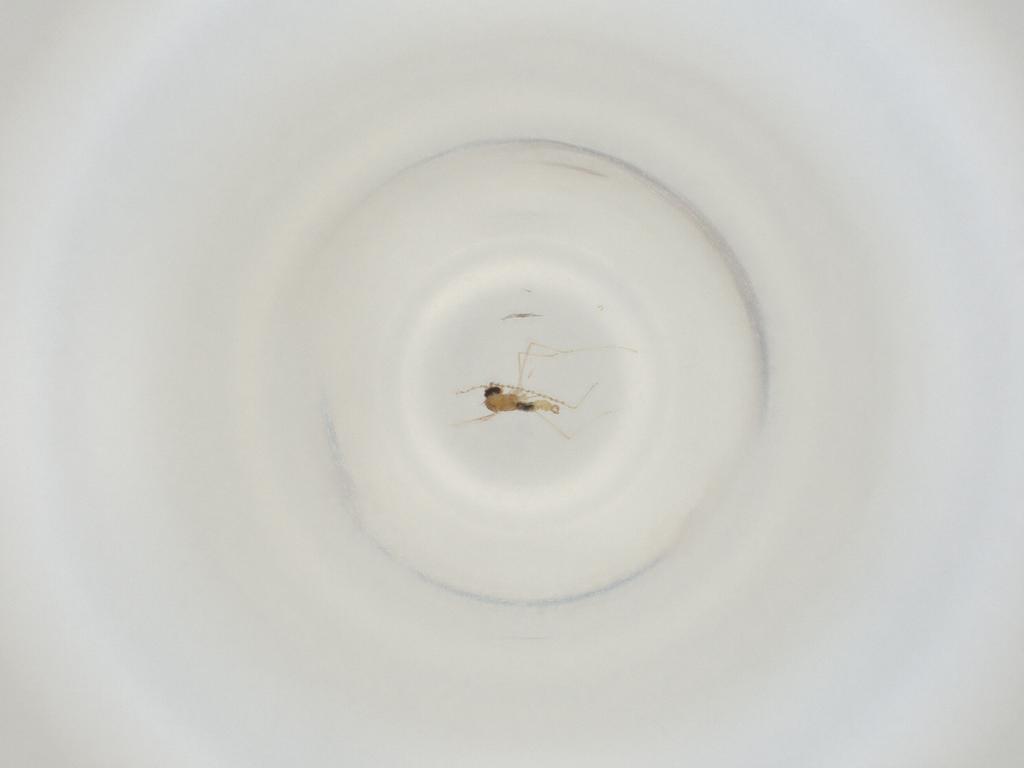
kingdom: Animalia
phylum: Arthropoda
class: Insecta
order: Diptera
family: Cecidomyiidae
